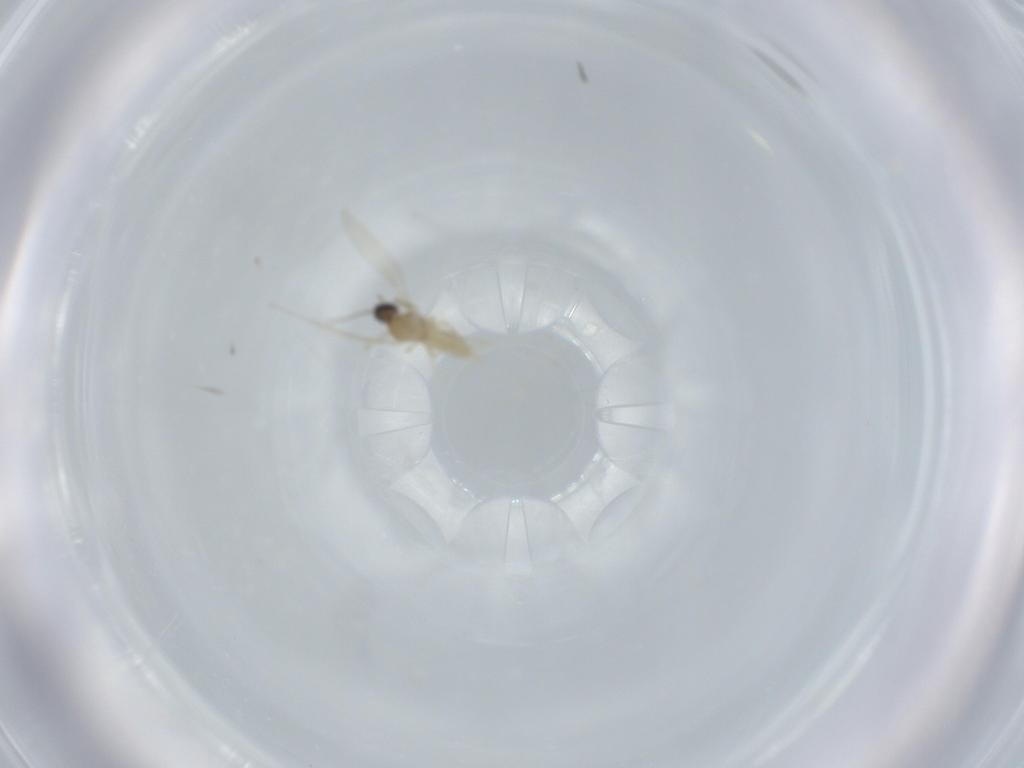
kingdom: Animalia
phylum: Arthropoda
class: Insecta
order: Diptera
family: Cecidomyiidae
